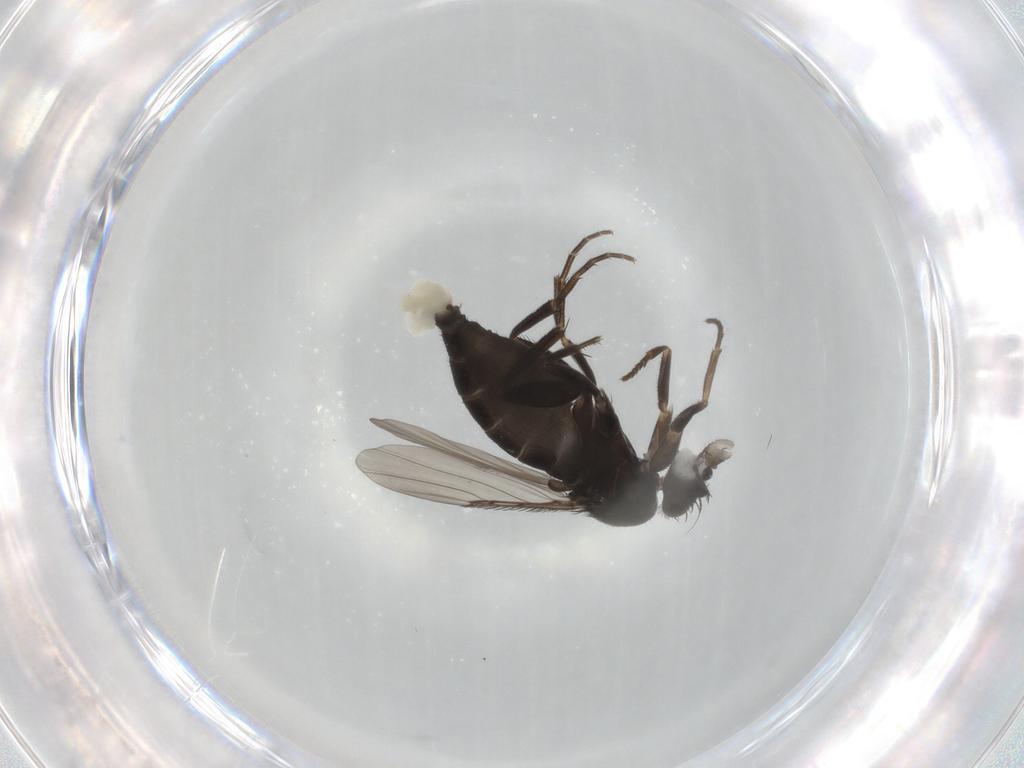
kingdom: Animalia
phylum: Arthropoda
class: Insecta
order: Diptera
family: Phoridae
